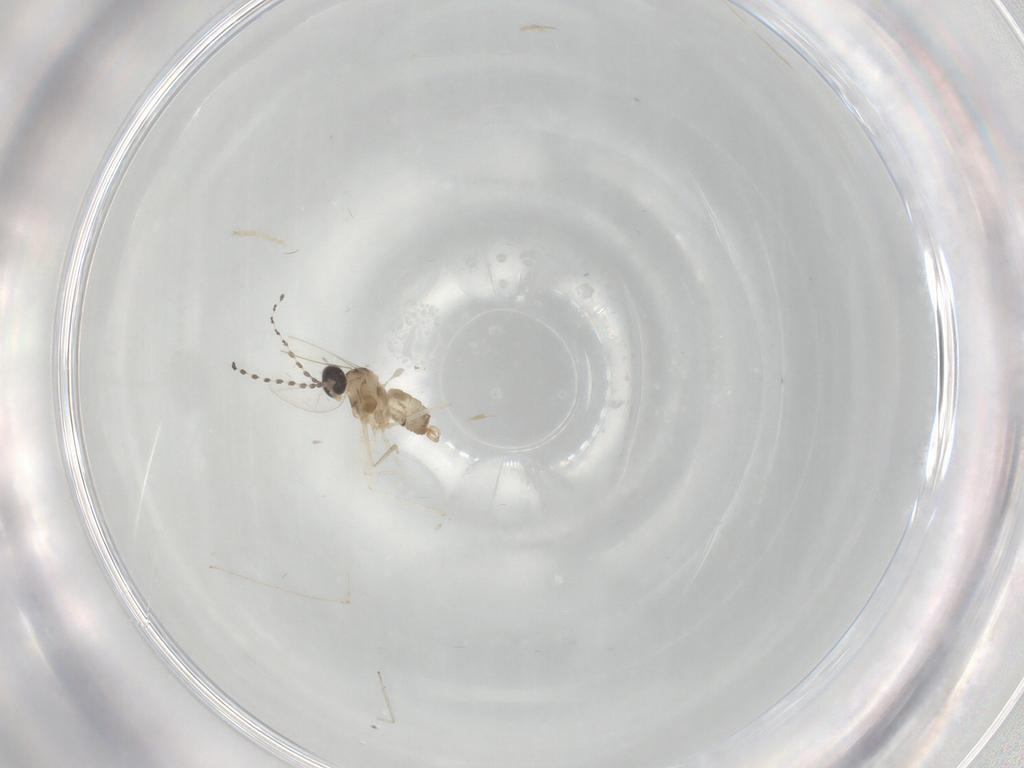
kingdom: Animalia
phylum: Arthropoda
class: Insecta
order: Diptera
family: Cecidomyiidae
